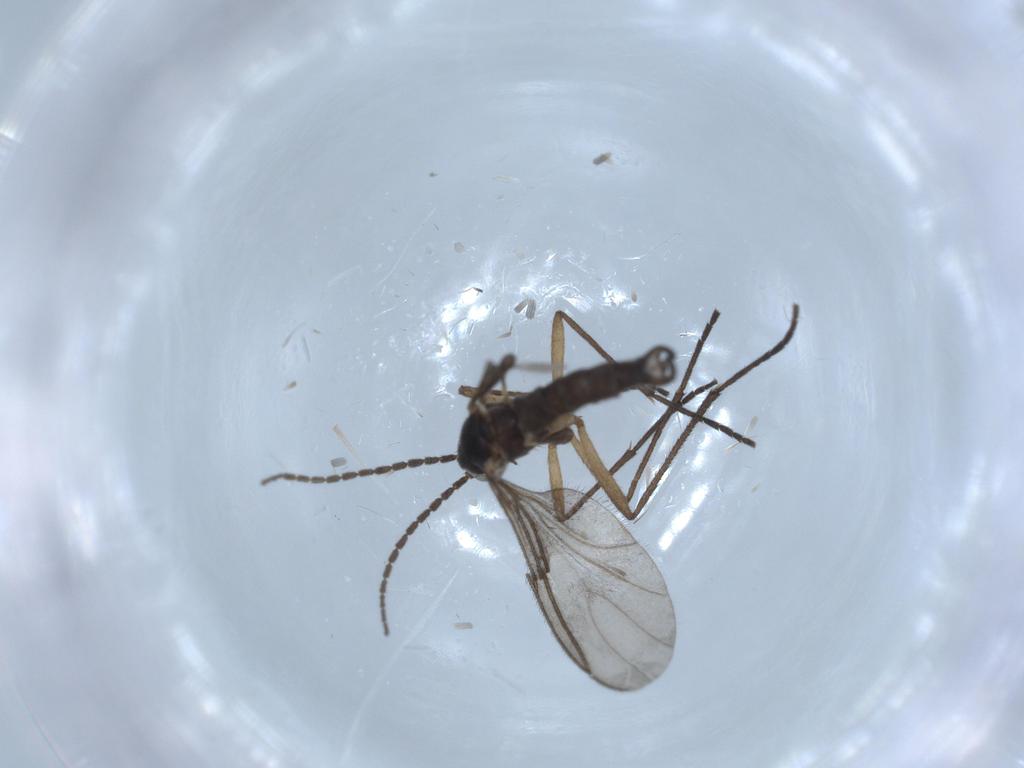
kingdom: Animalia
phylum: Arthropoda
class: Insecta
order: Diptera
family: Sciaridae
